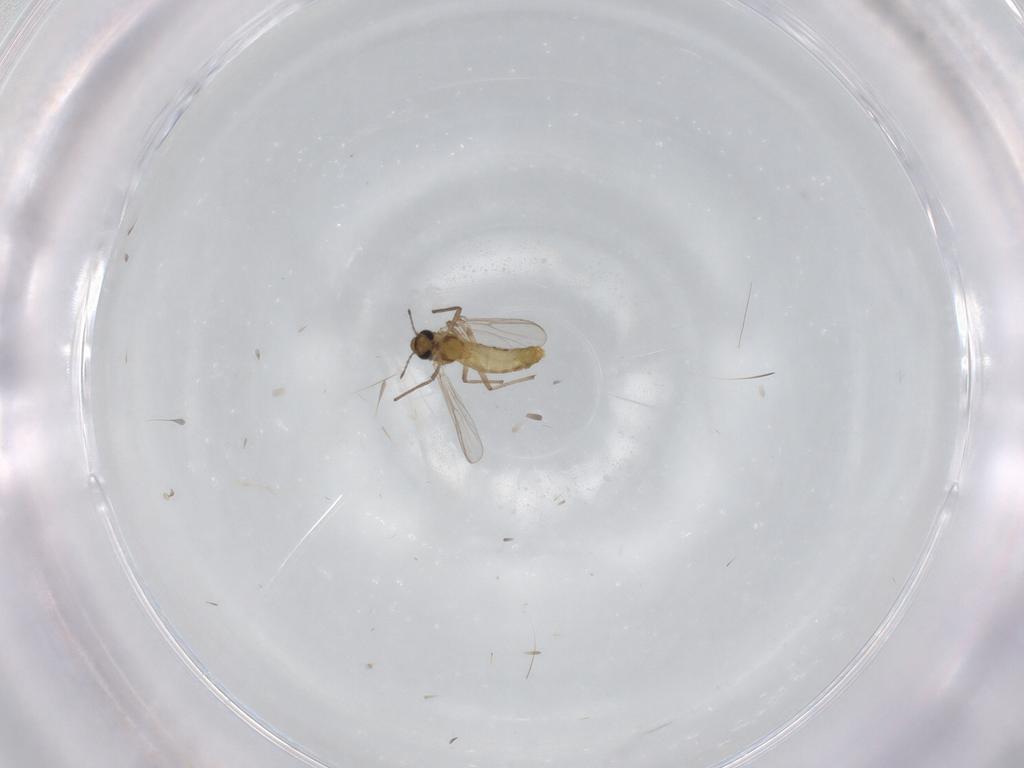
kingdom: Animalia
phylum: Arthropoda
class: Insecta
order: Diptera
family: Cecidomyiidae
